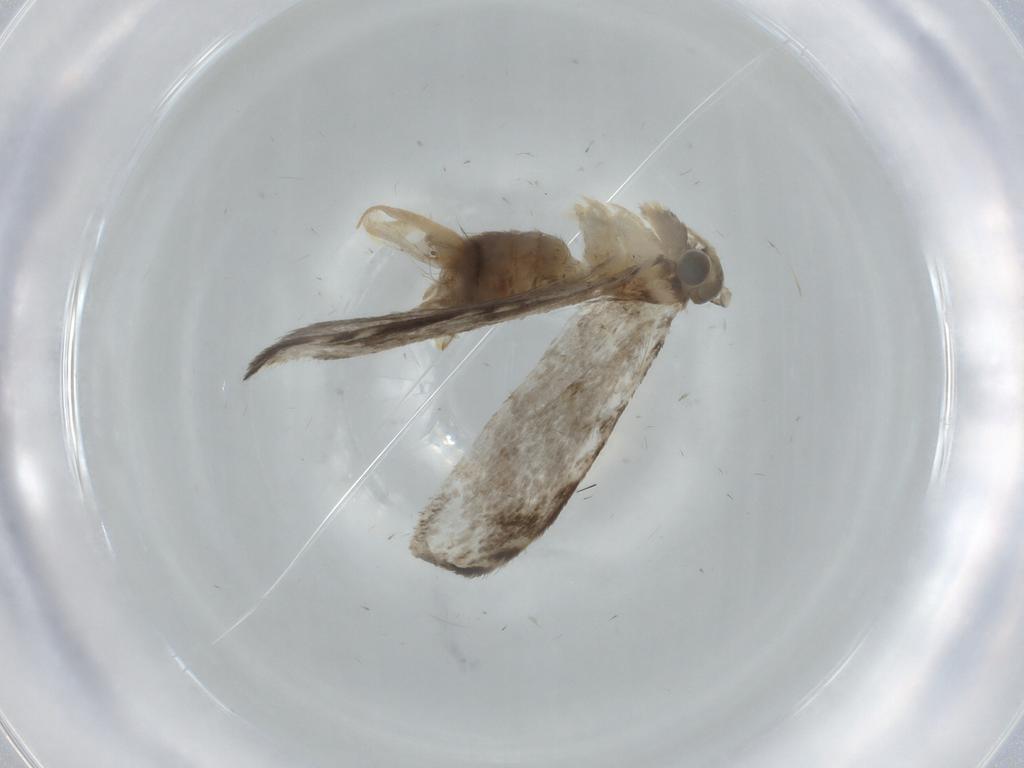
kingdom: Animalia
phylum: Arthropoda
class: Insecta
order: Lepidoptera
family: Tineidae
